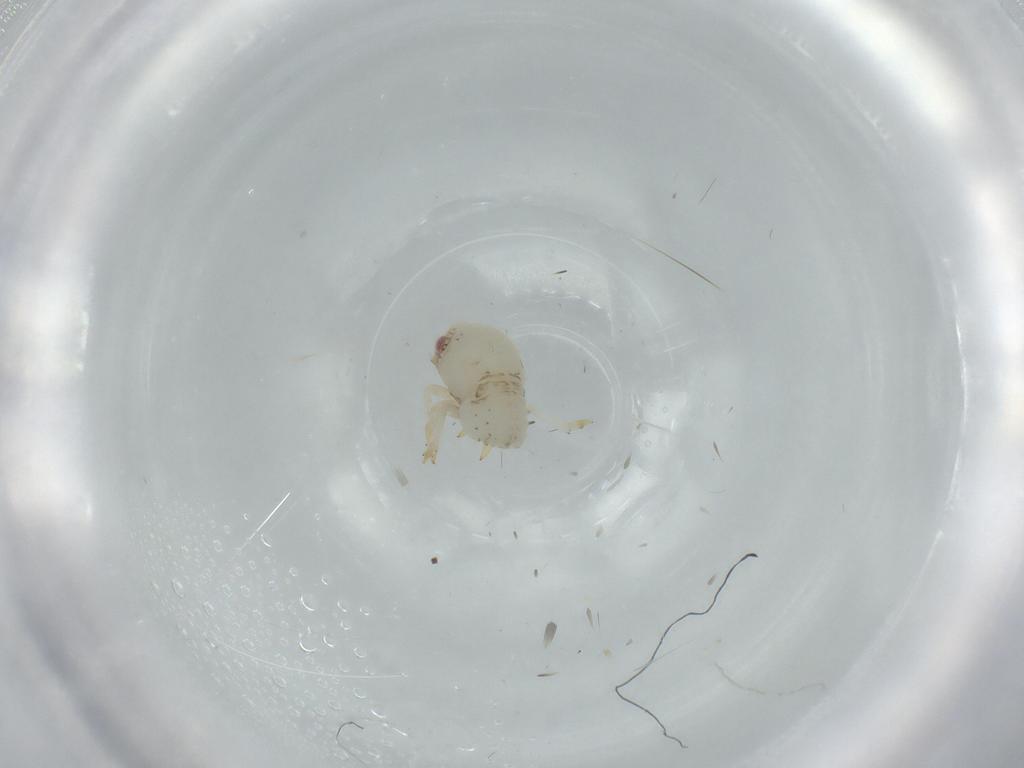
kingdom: Animalia
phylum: Arthropoda
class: Insecta
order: Hemiptera
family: Acanaloniidae
